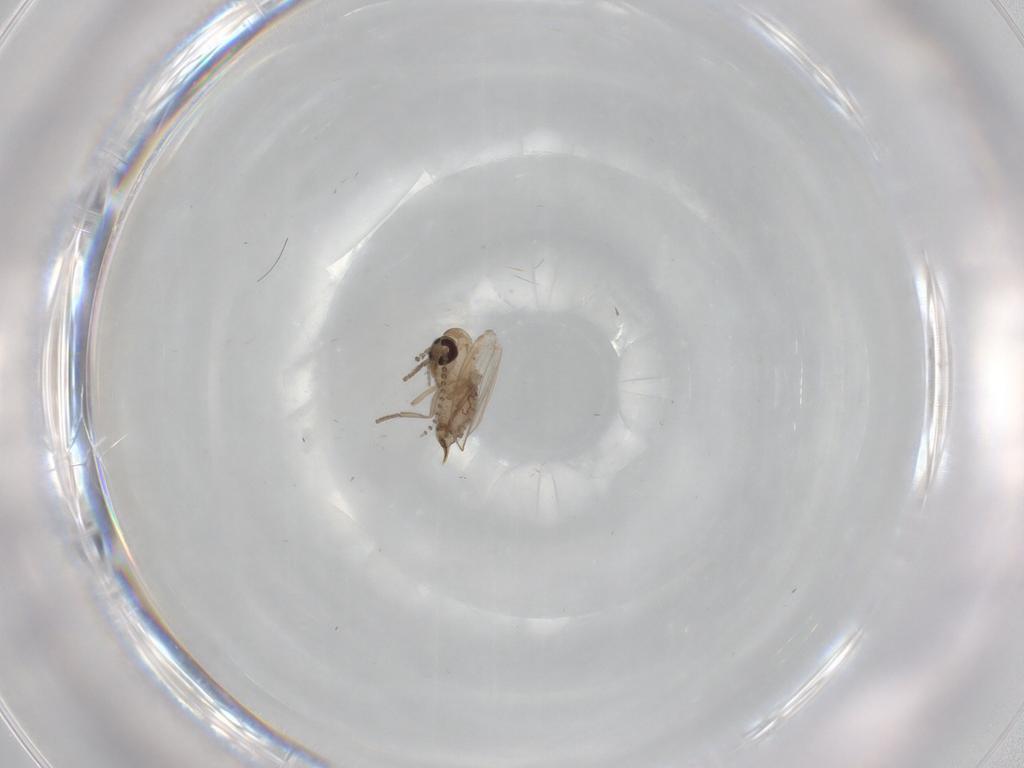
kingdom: Animalia
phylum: Arthropoda
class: Insecta
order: Diptera
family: Psychodidae
